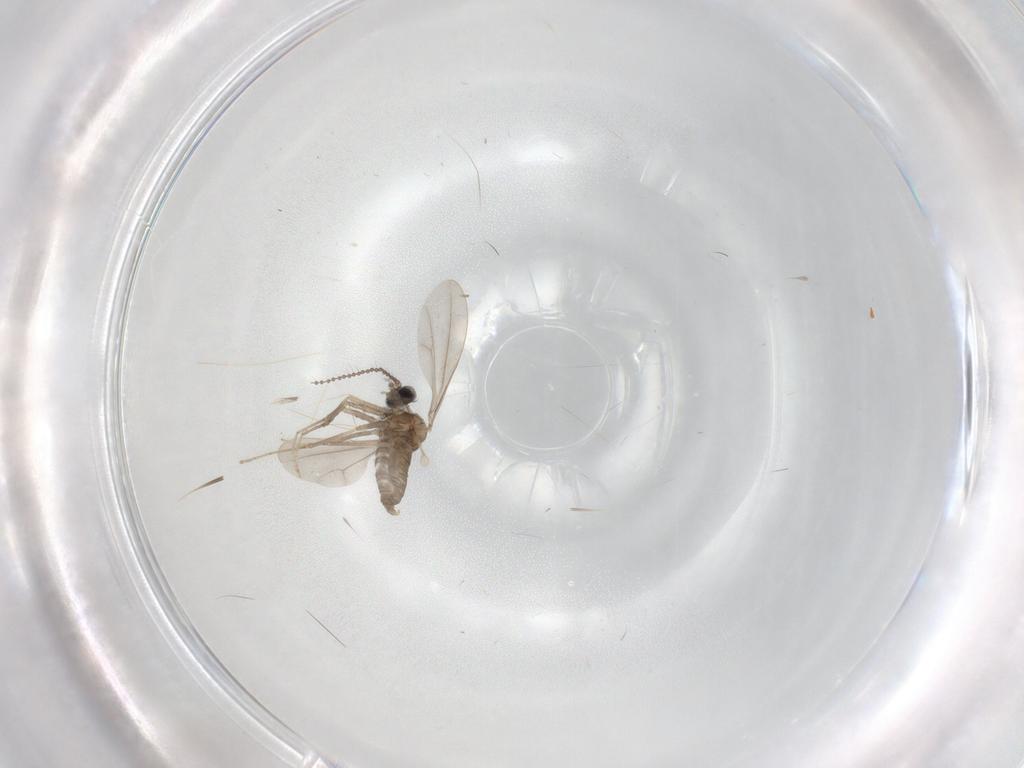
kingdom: Animalia
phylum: Arthropoda
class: Insecta
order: Diptera
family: Cecidomyiidae
